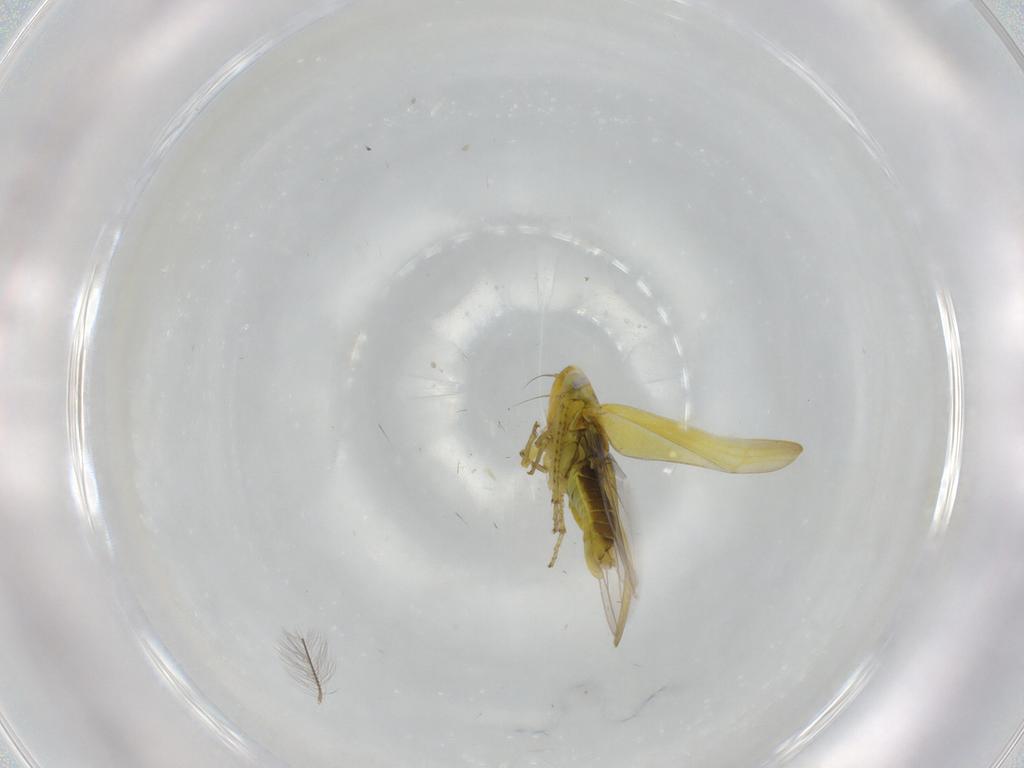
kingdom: Animalia
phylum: Arthropoda
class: Insecta
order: Hemiptera
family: Cicadellidae
